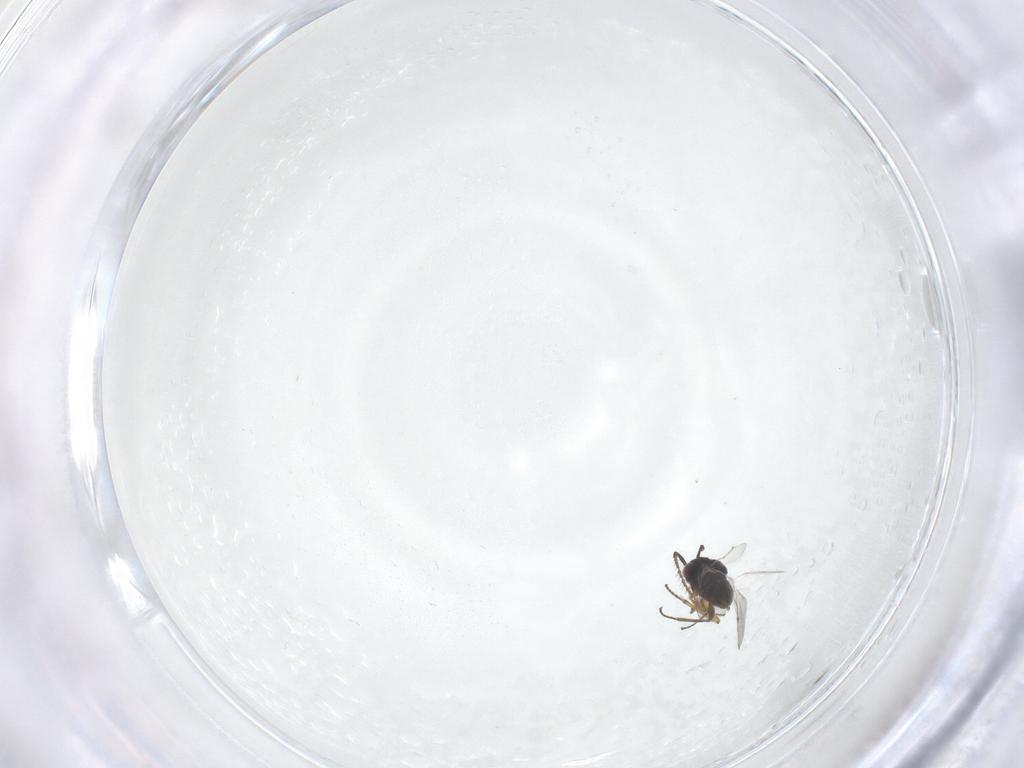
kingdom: Animalia
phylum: Arthropoda
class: Insecta
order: Hymenoptera
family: Encyrtidae
